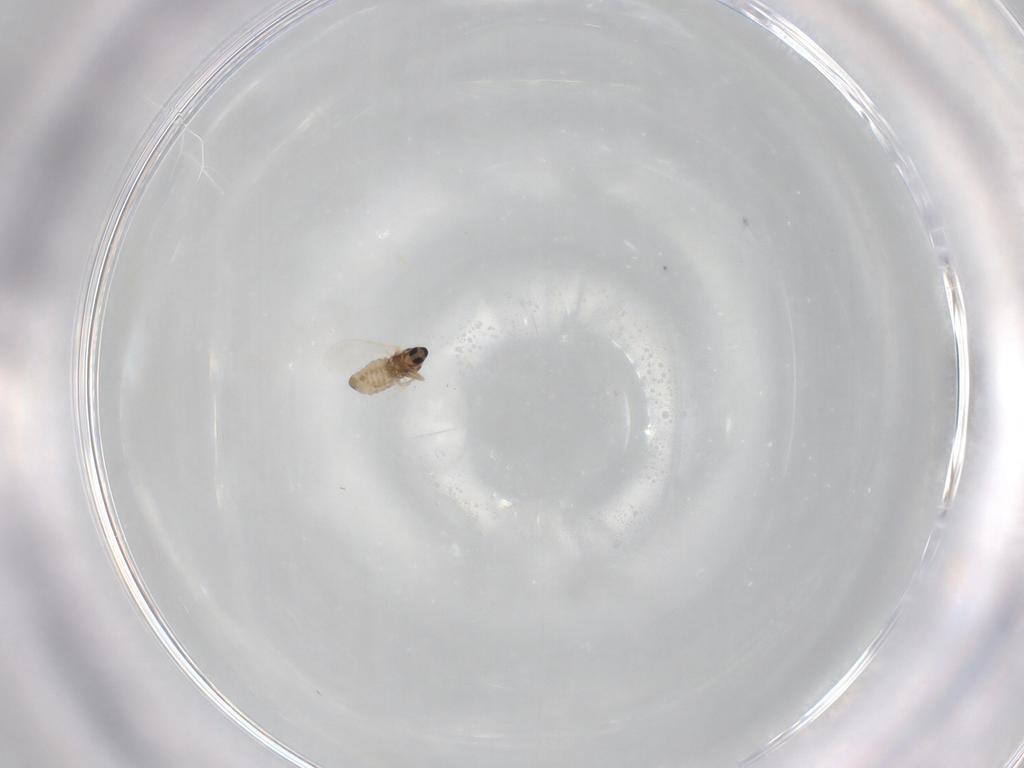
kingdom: Animalia
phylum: Arthropoda
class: Insecta
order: Diptera
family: Cecidomyiidae
